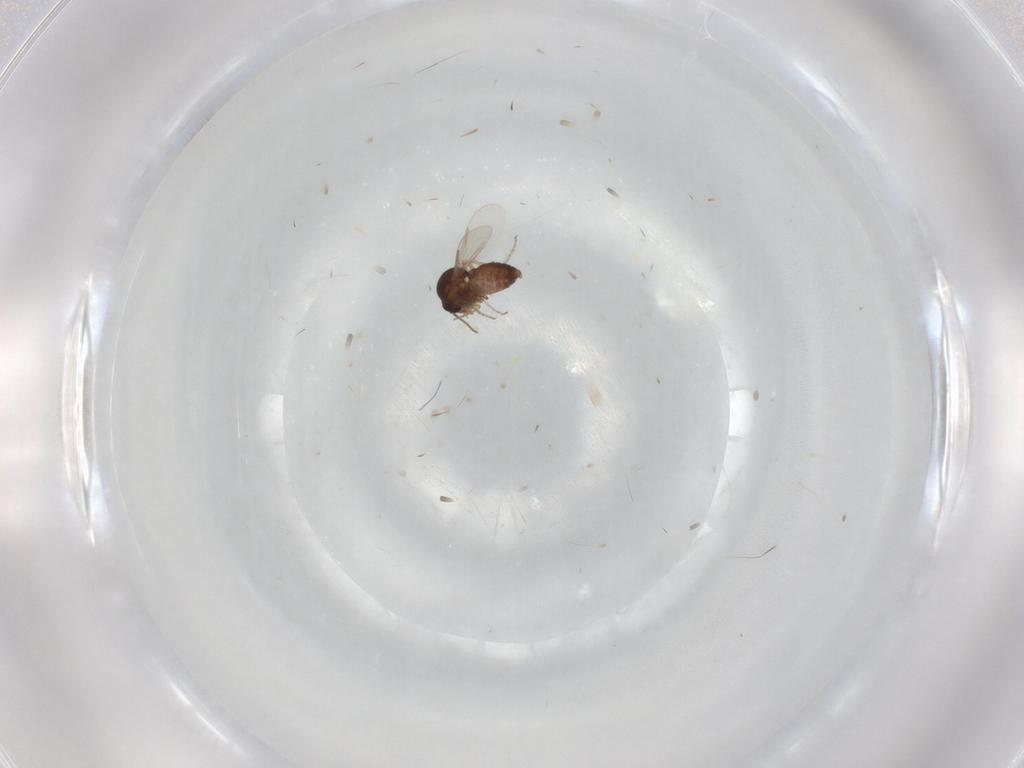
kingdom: Animalia
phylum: Arthropoda
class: Insecta
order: Diptera
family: Ceratopogonidae
